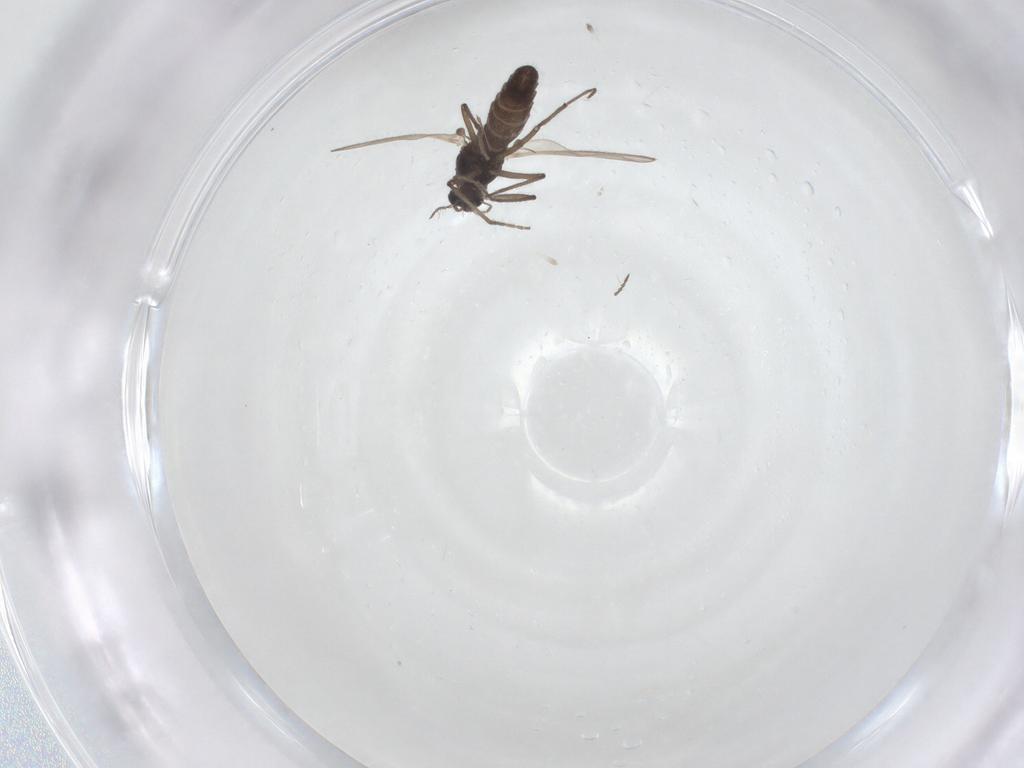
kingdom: Animalia
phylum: Arthropoda
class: Insecta
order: Diptera
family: Chironomidae
